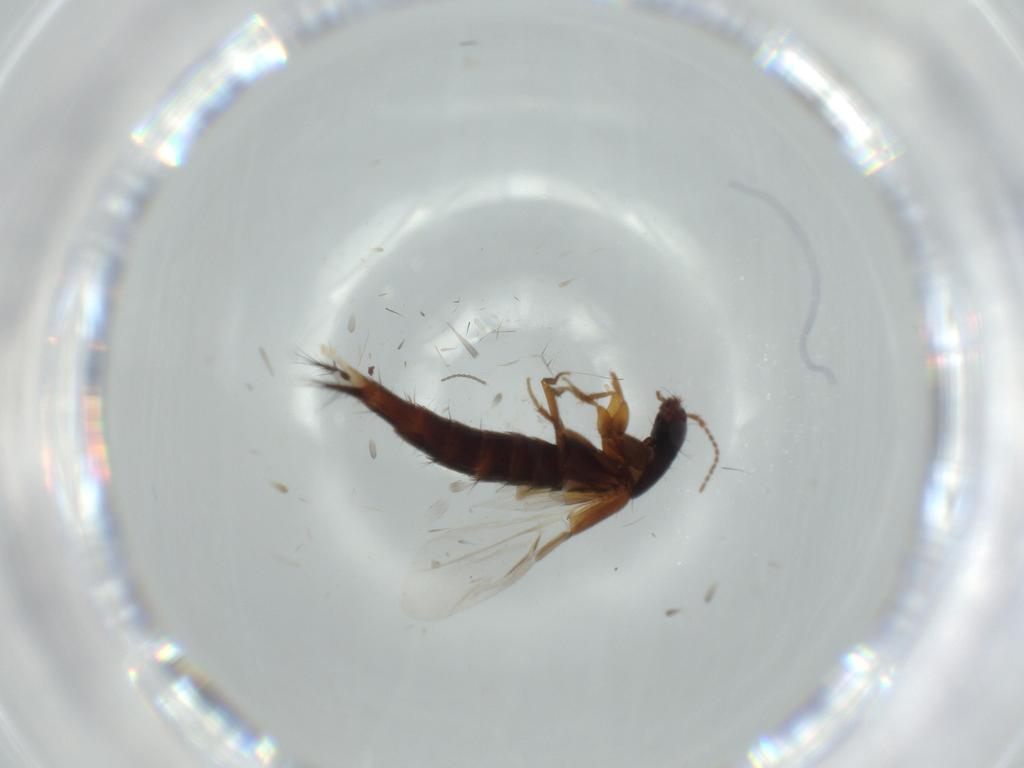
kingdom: Animalia
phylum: Arthropoda
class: Insecta
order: Coleoptera
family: Staphylinidae
